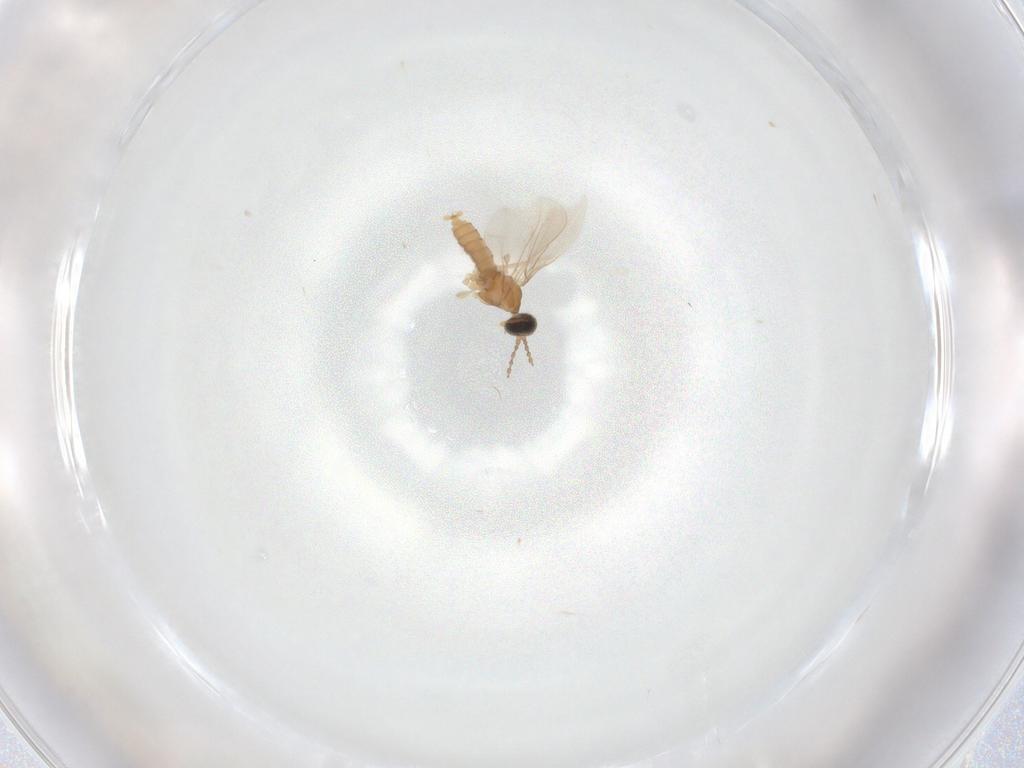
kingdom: Animalia
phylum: Arthropoda
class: Insecta
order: Diptera
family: Cecidomyiidae
